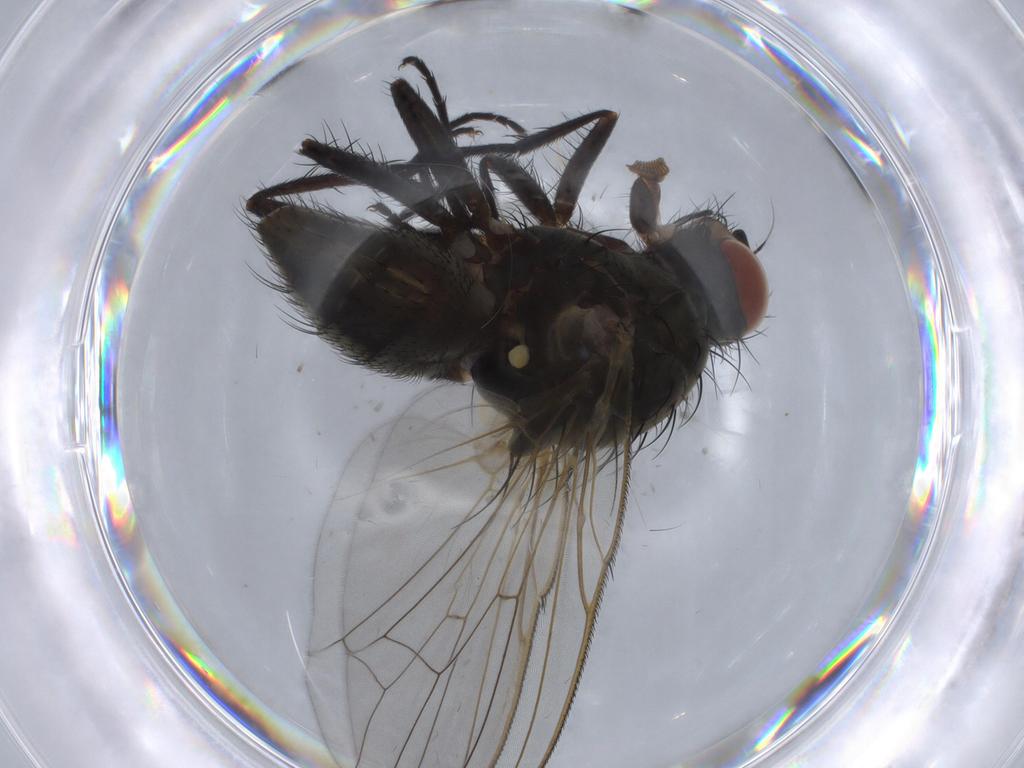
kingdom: Animalia
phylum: Arthropoda
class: Insecta
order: Diptera
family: Anthomyiidae
